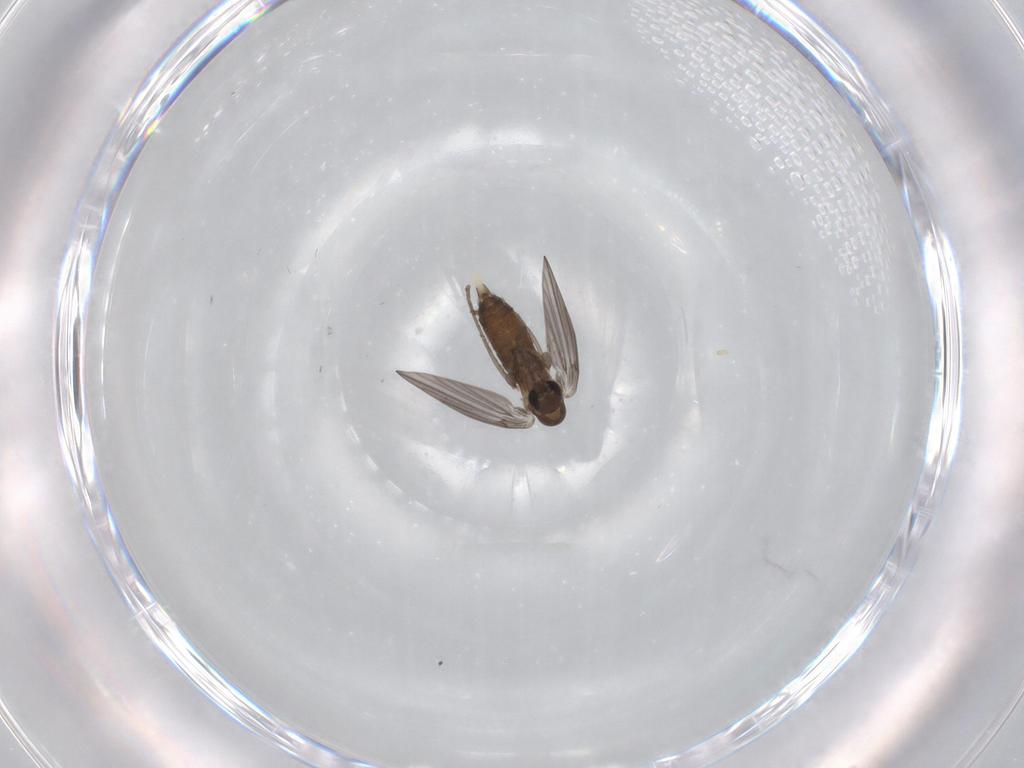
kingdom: Animalia
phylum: Arthropoda
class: Insecta
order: Diptera
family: Psychodidae
